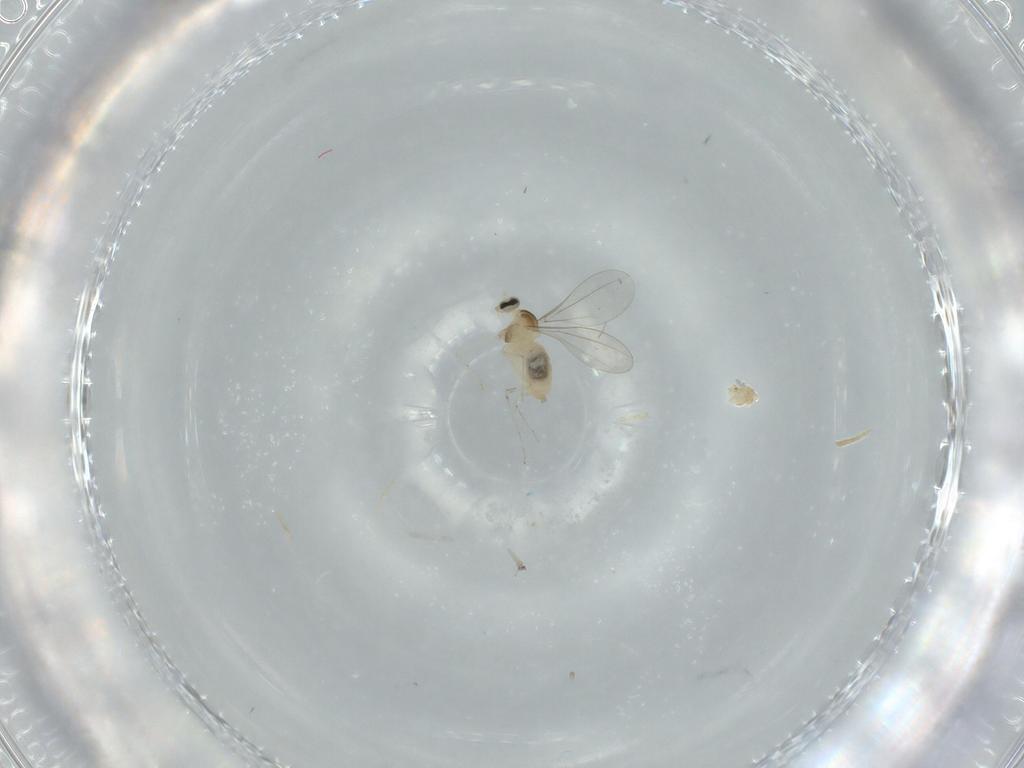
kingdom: Animalia
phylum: Arthropoda
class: Insecta
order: Diptera
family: Cecidomyiidae
